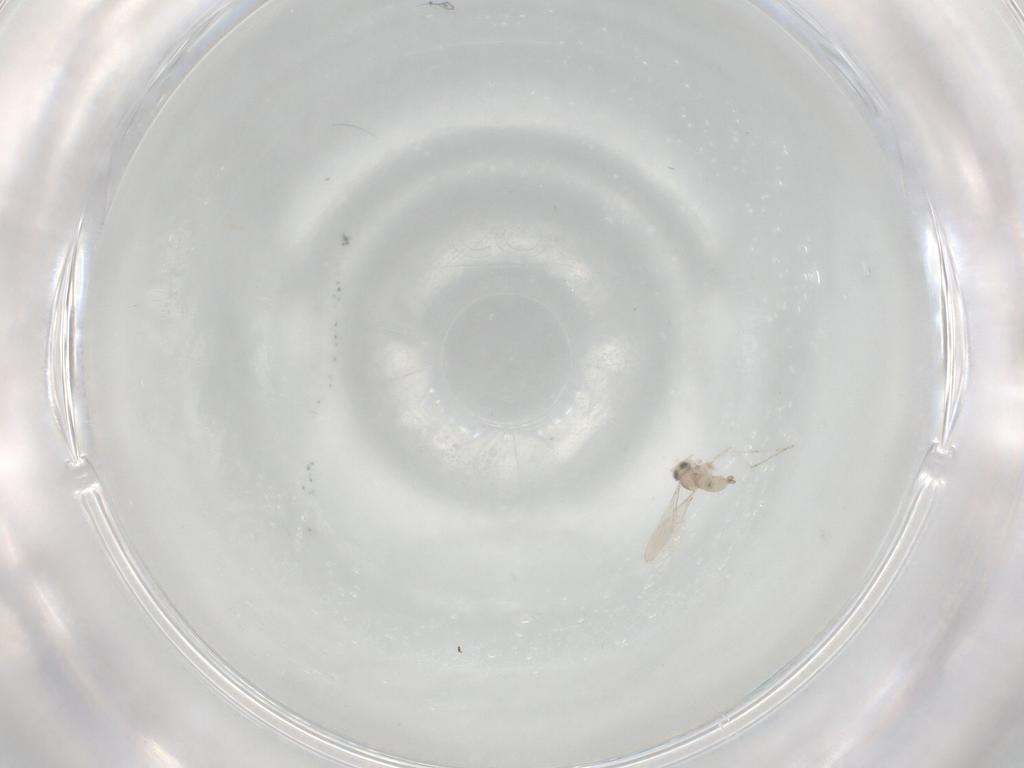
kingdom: Animalia
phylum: Arthropoda
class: Insecta
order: Diptera
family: Cecidomyiidae
